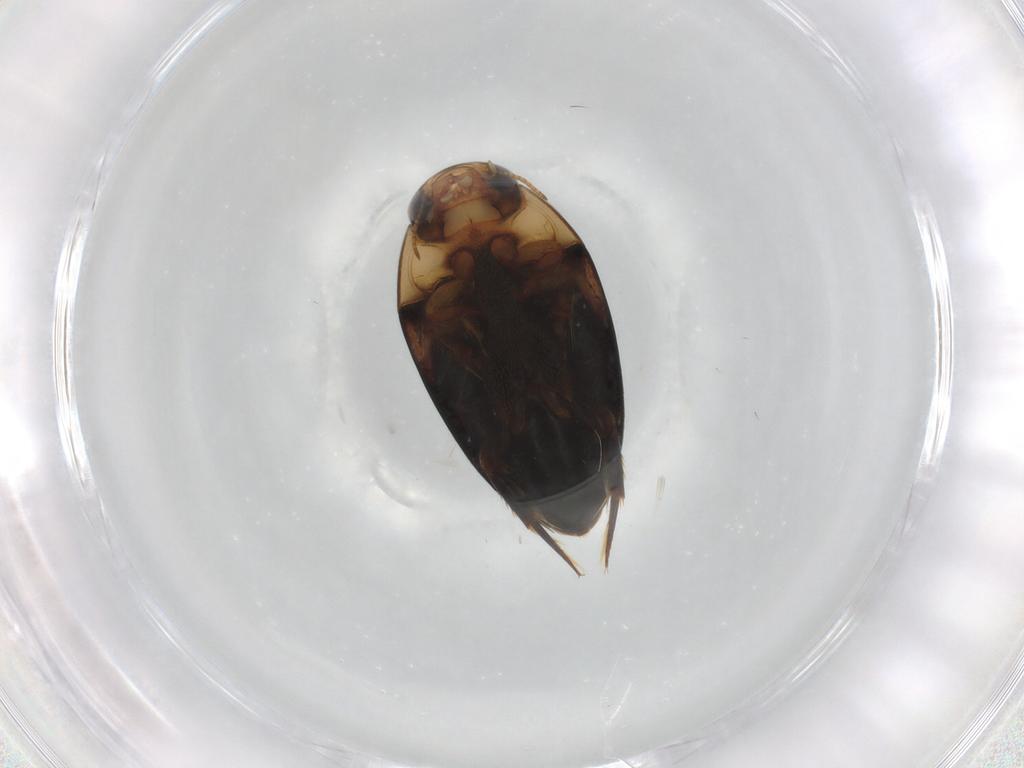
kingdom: Animalia
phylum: Arthropoda
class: Insecta
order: Coleoptera
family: Noteridae
